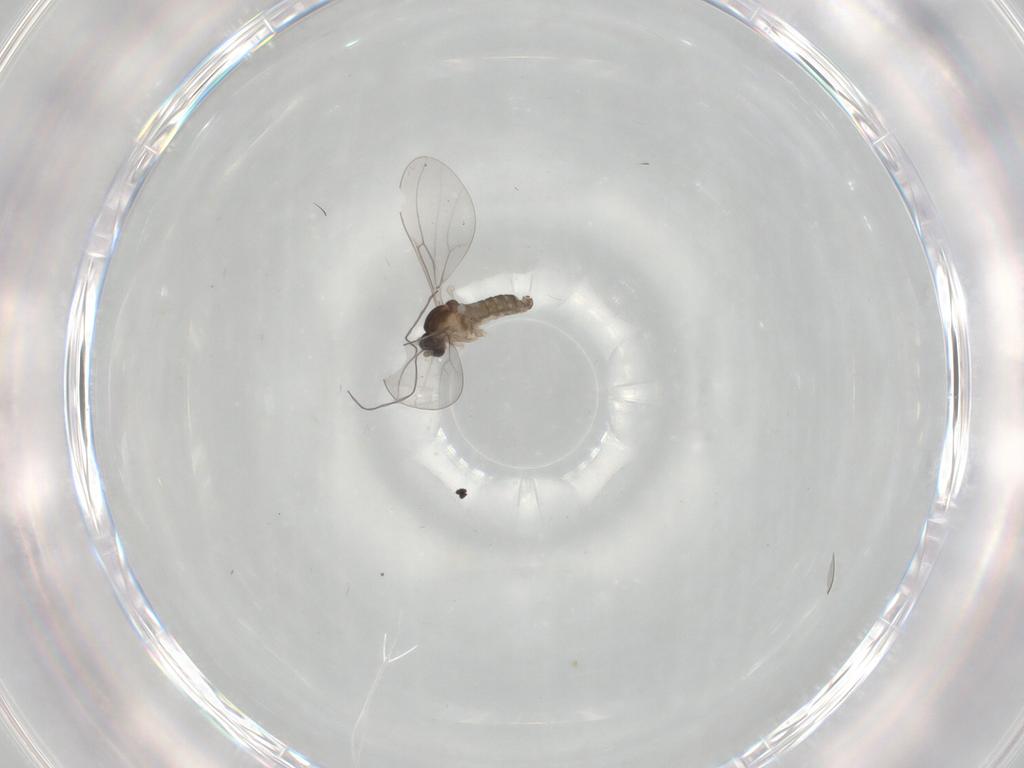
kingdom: Animalia
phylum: Arthropoda
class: Insecta
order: Diptera
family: Cecidomyiidae
